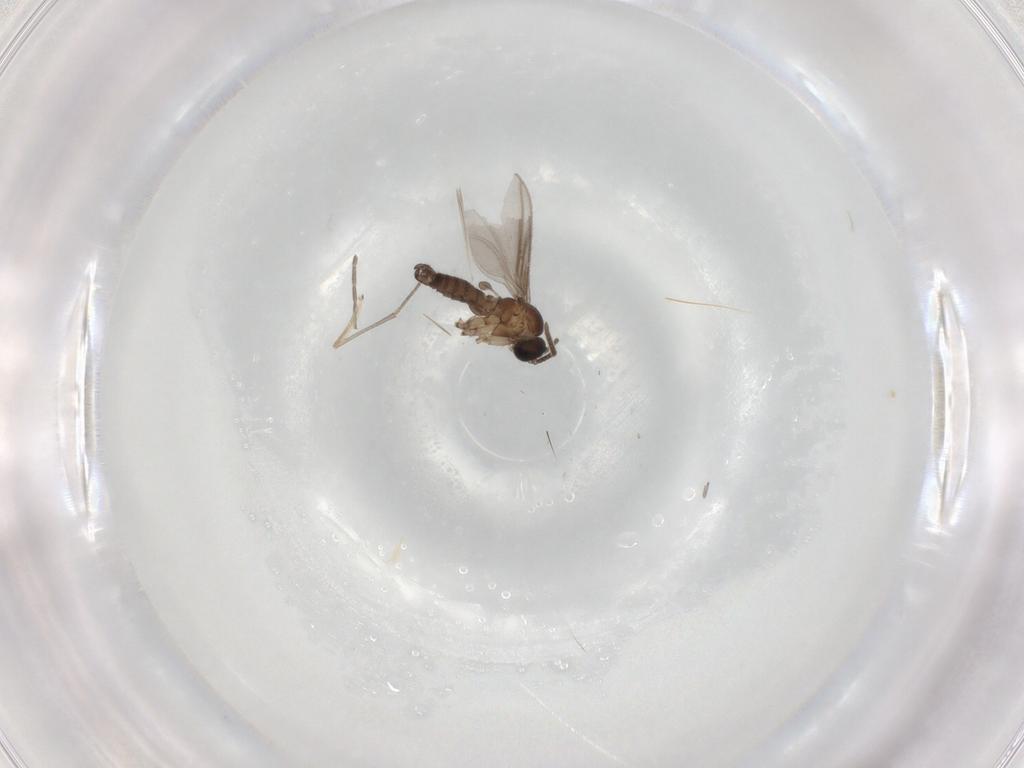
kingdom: Animalia
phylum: Arthropoda
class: Insecta
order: Diptera
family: Sciaridae
